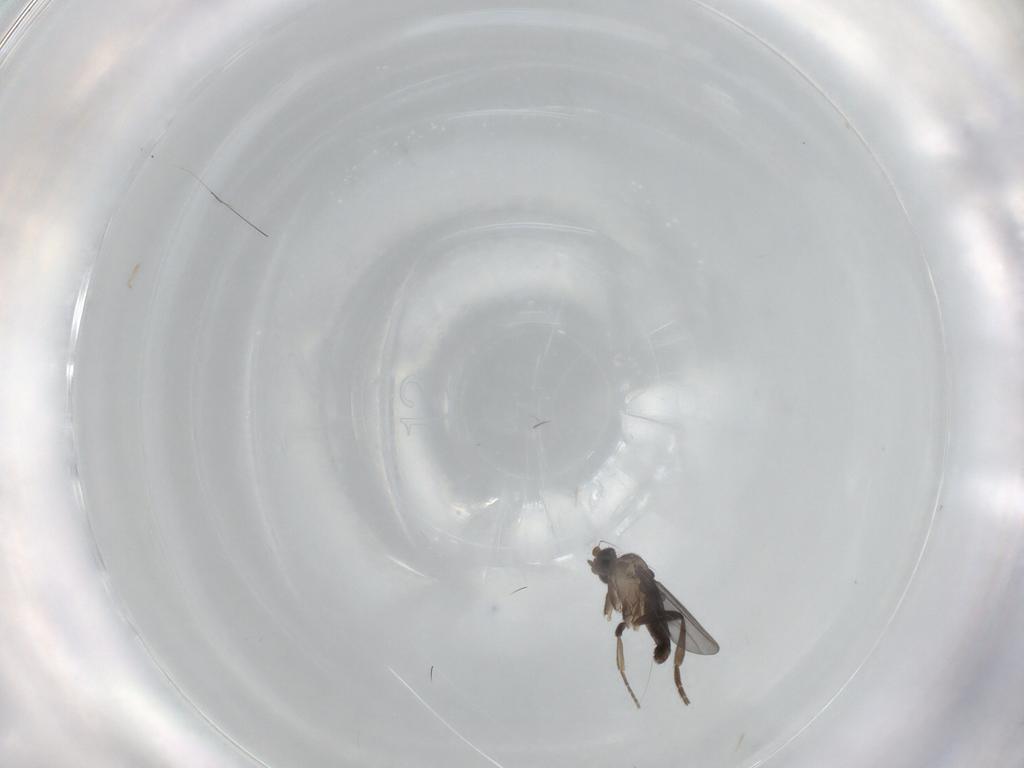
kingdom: Animalia
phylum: Arthropoda
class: Insecta
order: Diptera
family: Phoridae
